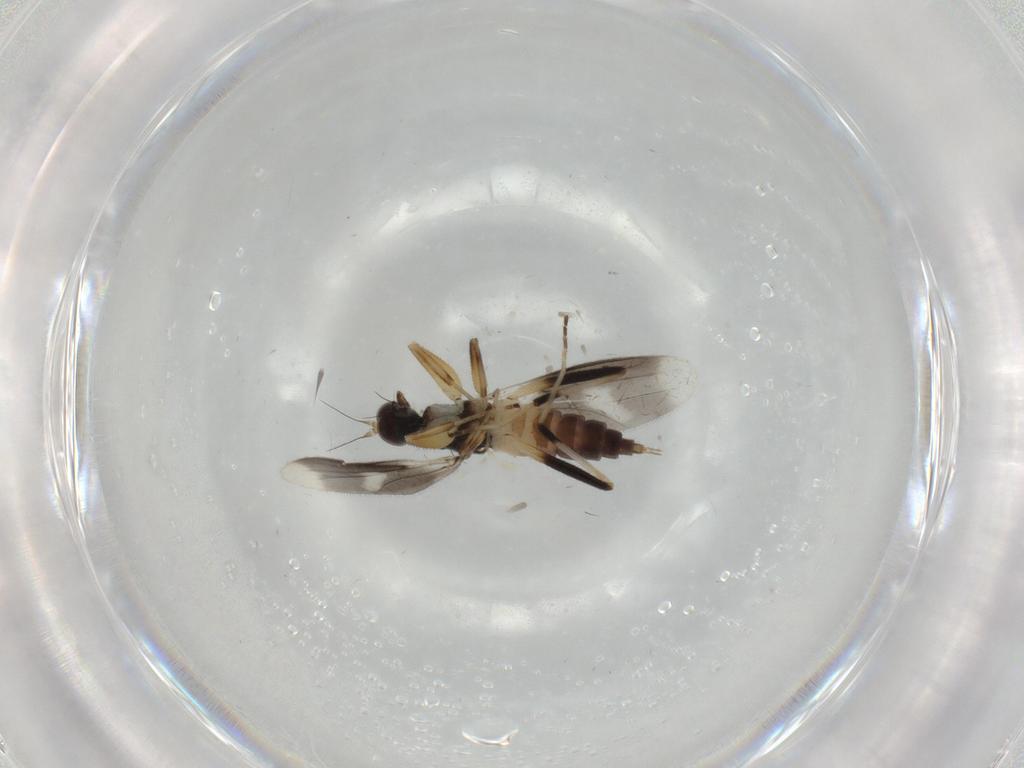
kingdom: Animalia
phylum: Arthropoda
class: Insecta
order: Diptera
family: Hybotidae
